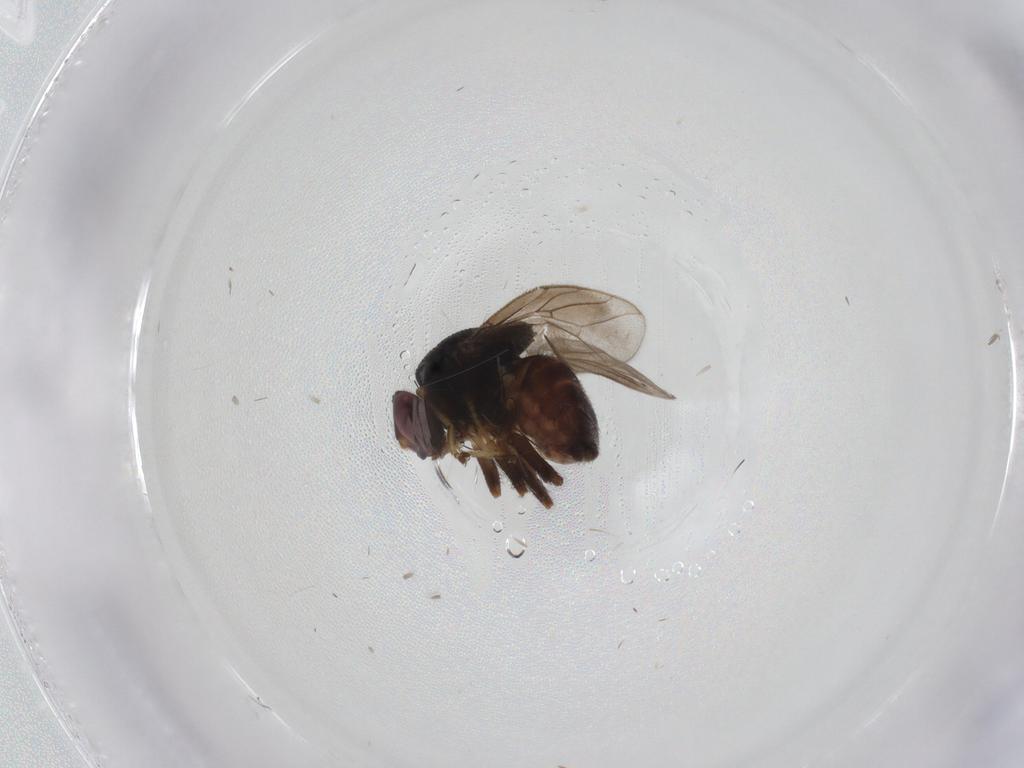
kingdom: Animalia
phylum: Arthropoda
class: Insecta
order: Diptera
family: Chloropidae
